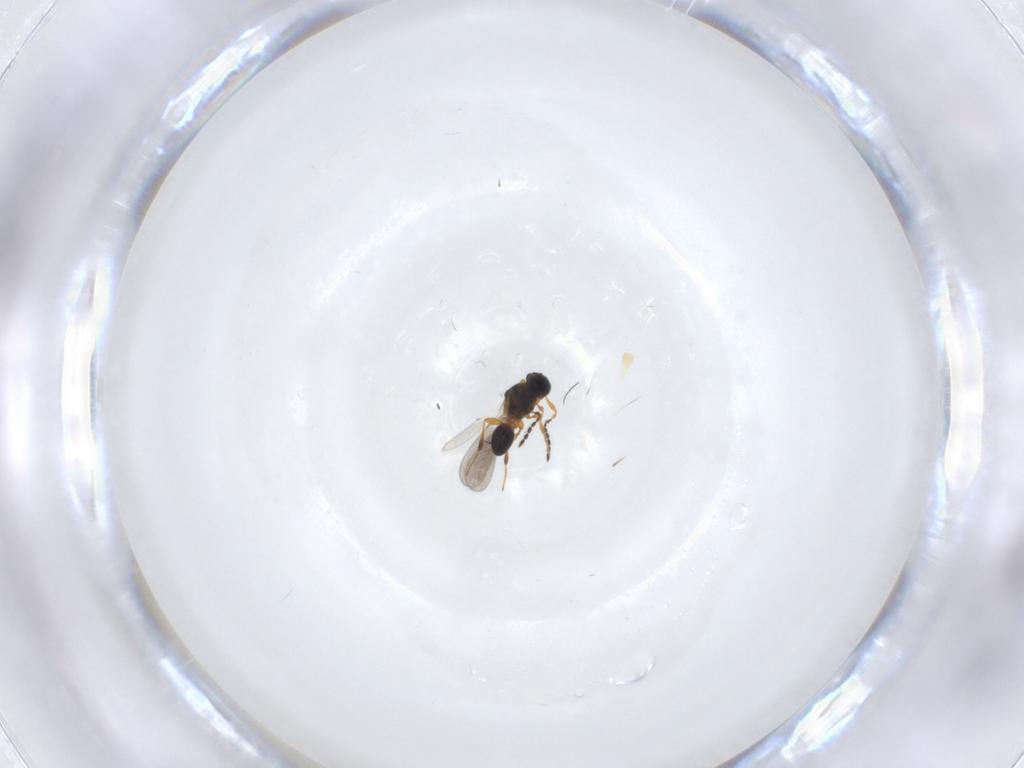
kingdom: Animalia
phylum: Arthropoda
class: Insecta
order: Hymenoptera
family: Platygastridae
